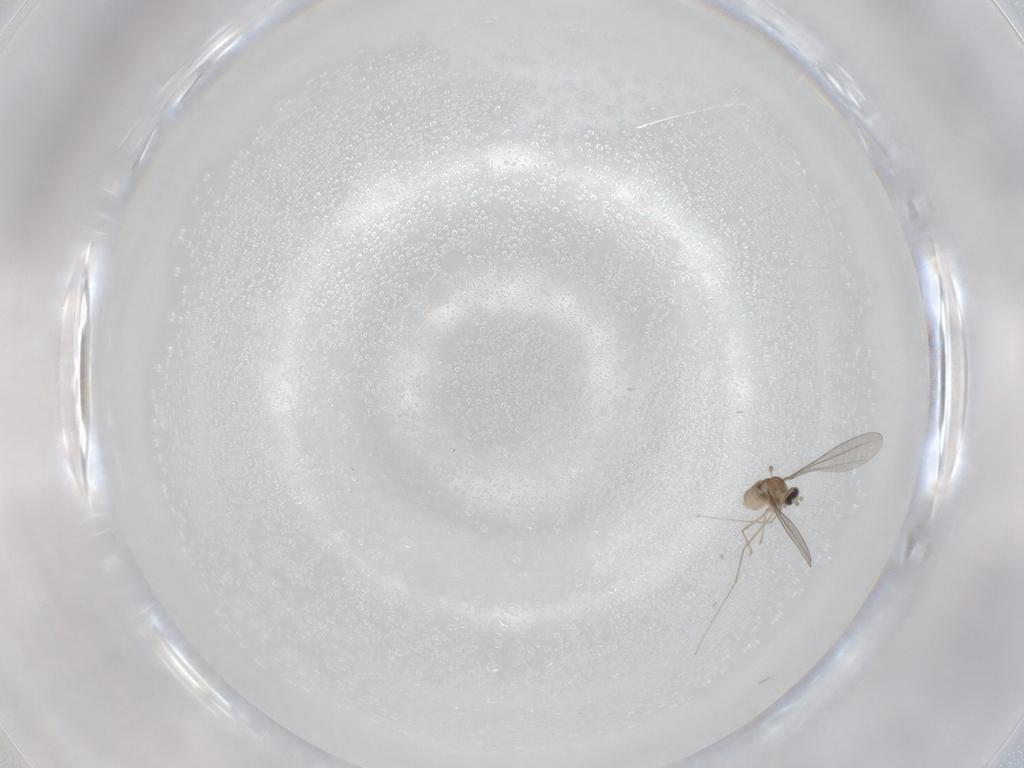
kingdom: Animalia
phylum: Arthropoda
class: Insecta
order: Diptera
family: Cecidomyiidae
